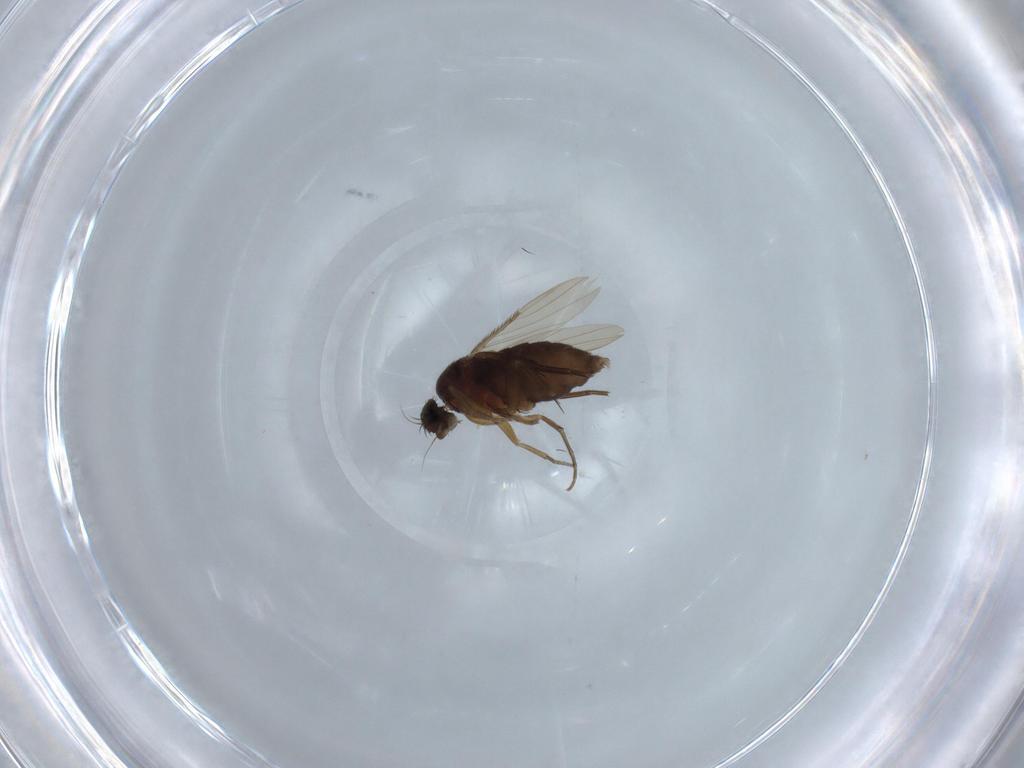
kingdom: Animalia
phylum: Arthropoda
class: Insecta
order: Diptera
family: Phoridae
